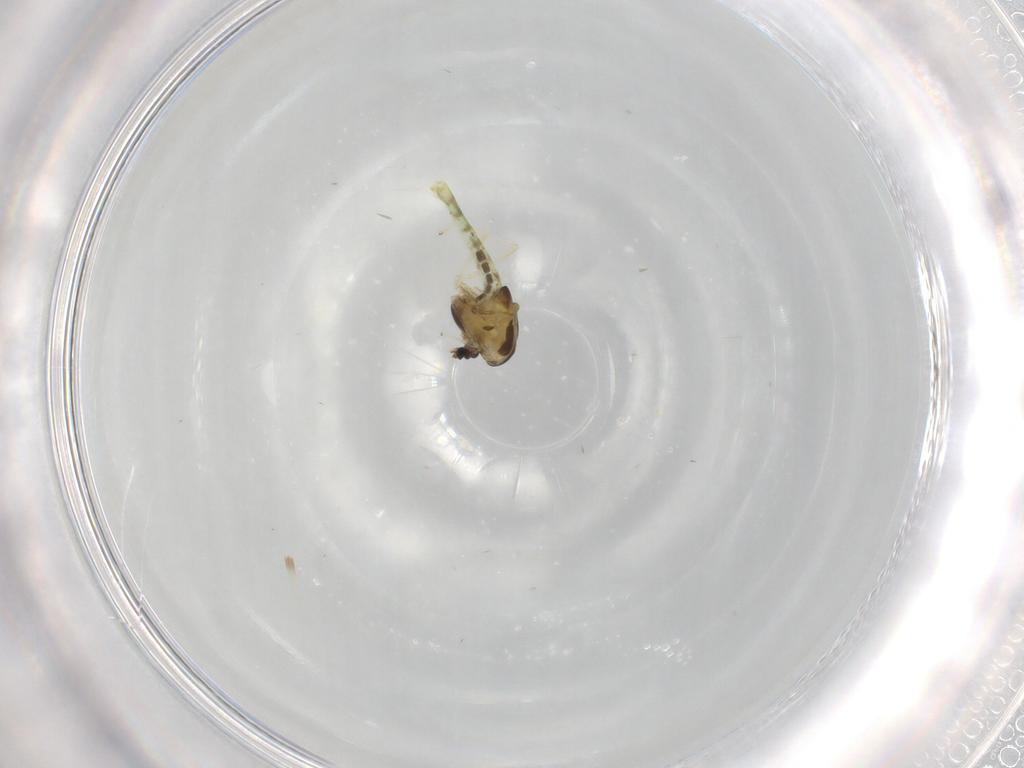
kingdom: Animalia
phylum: Arthropoda
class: Insecta
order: Diptera
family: Chironomidae
